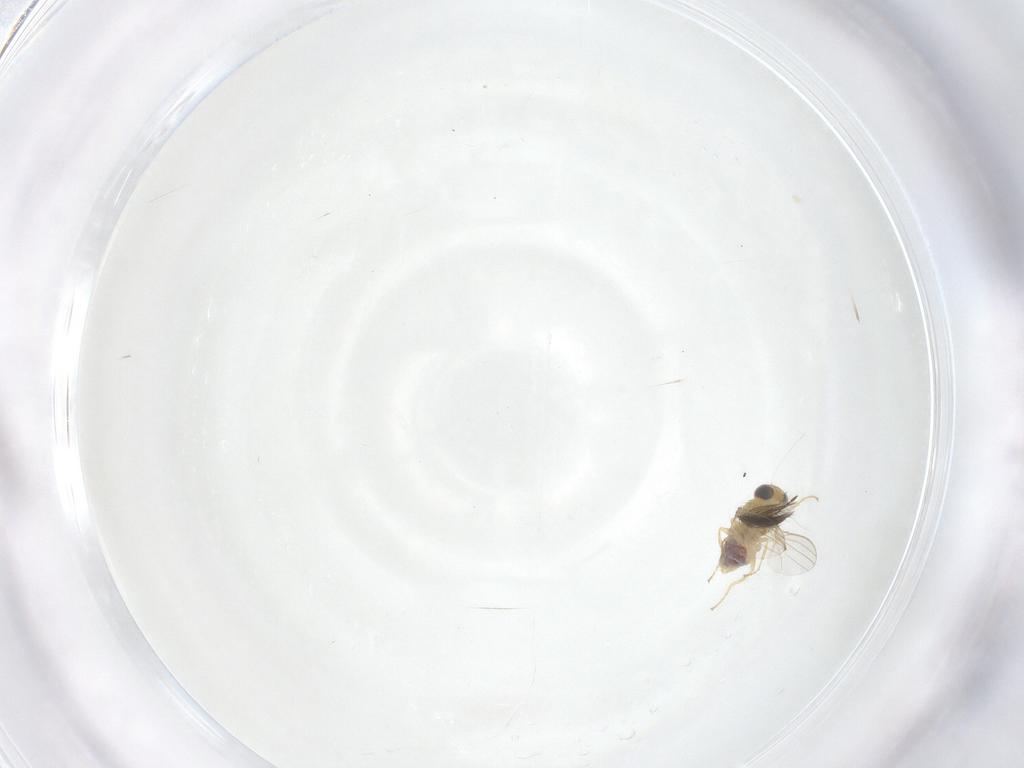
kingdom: Animalia
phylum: Arthropoda
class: Insecta
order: Diptera
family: Ceratopogonidae
